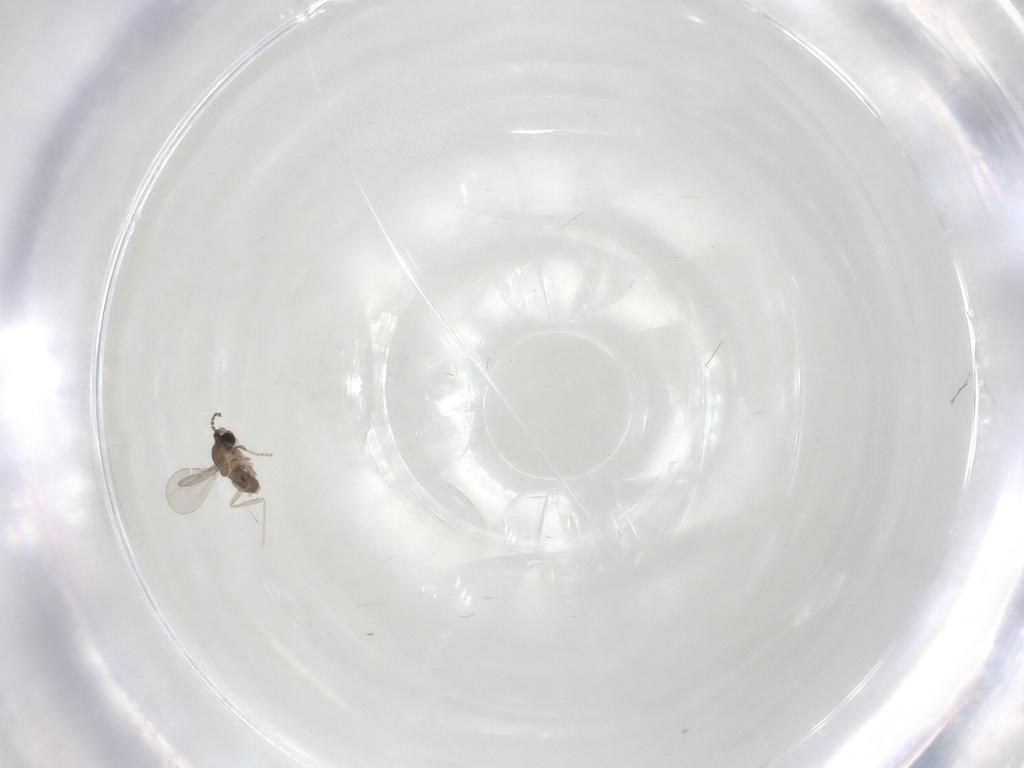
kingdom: Animalia
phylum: Arthropoda
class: Insecta
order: Diptera
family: Cecidomyiidae
